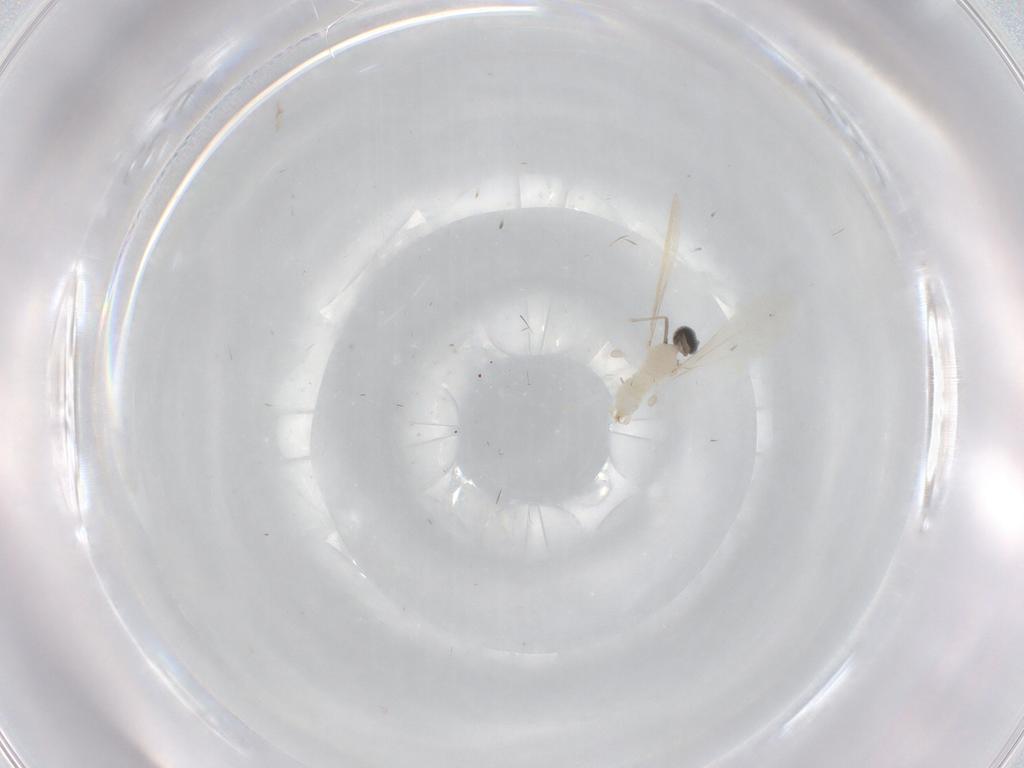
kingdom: Animalia
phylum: Arthropoda
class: Insecta
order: Diptera
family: Cecidomyiidae
